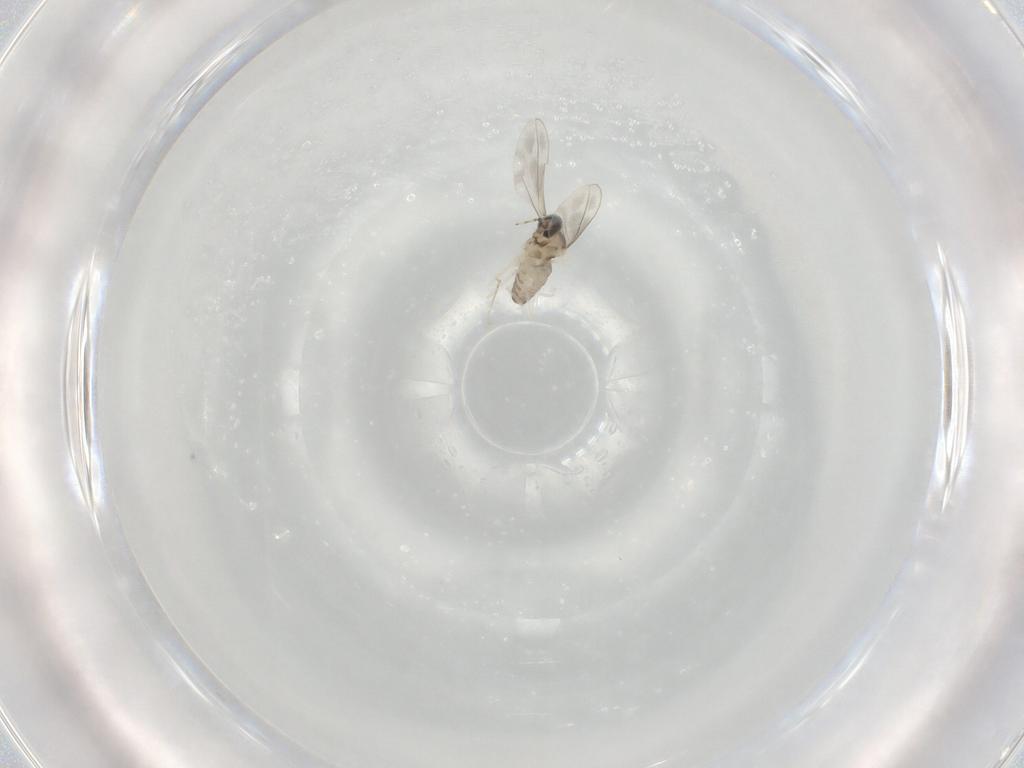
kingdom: Animalia
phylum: Arthropoda
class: Insecta
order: Diptera
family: Cecidomyiidae
